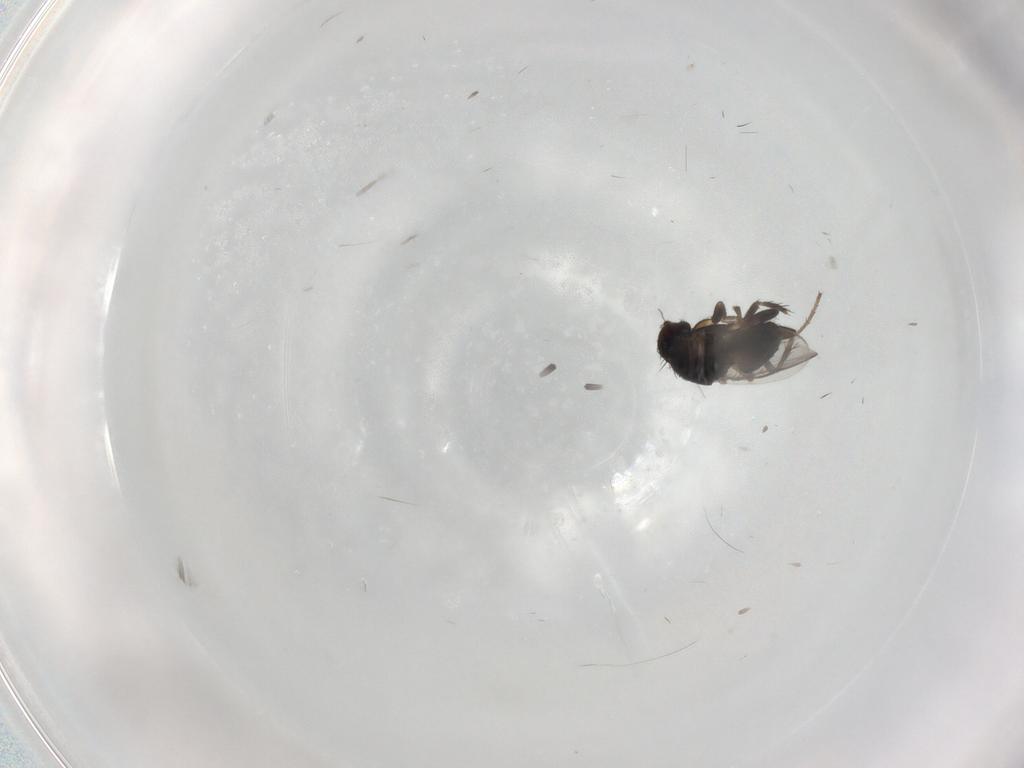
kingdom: Animalia
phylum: Arthropoda
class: Insecta
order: Diptera
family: Sphaeroceridae
